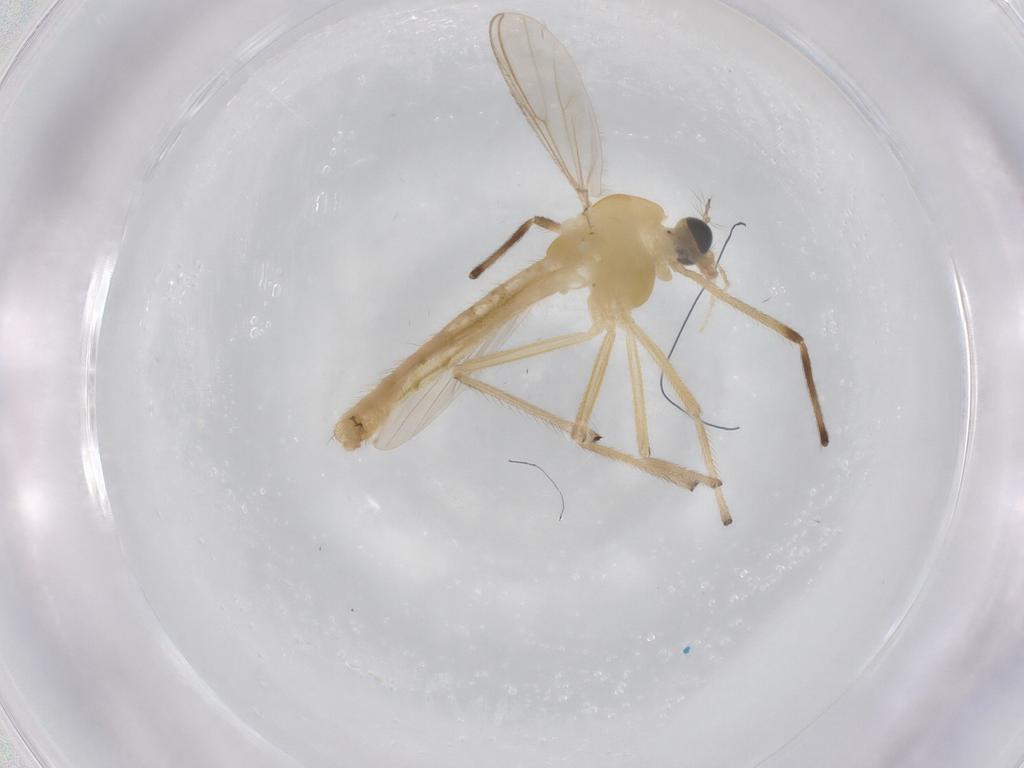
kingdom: Animalia
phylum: Arthropoda
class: Insecta
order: Diptera
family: Chironomidae
